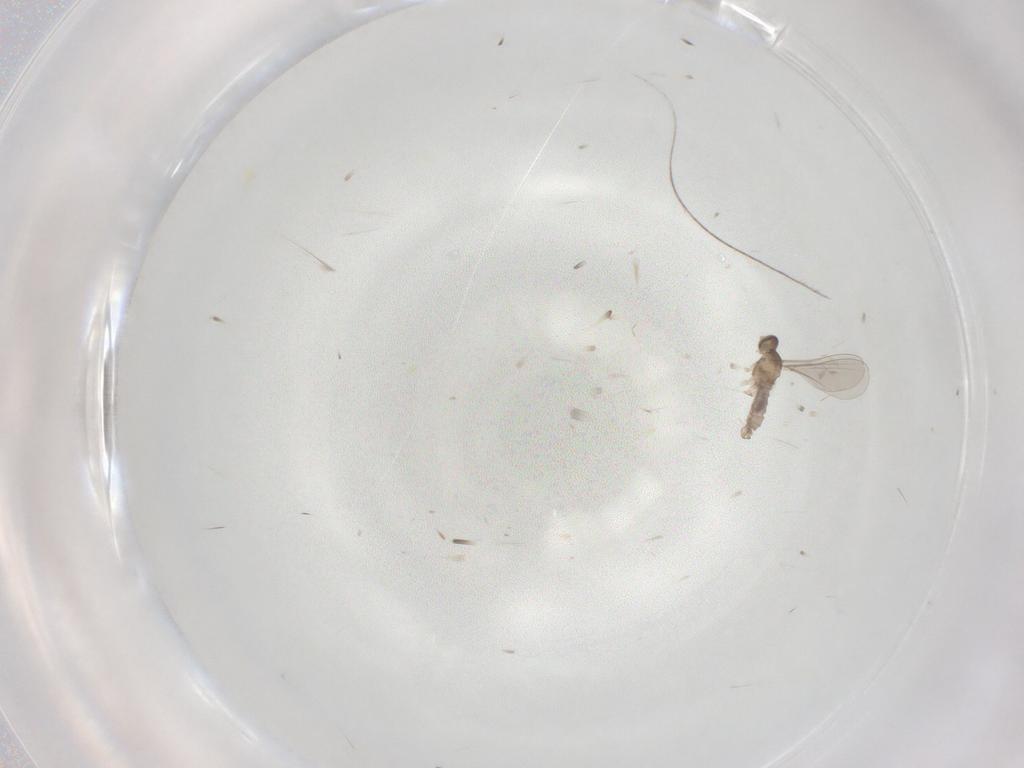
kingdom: Animalia
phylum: Arthropoda
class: Insecta
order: Diptera
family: Cecidomyiidae
